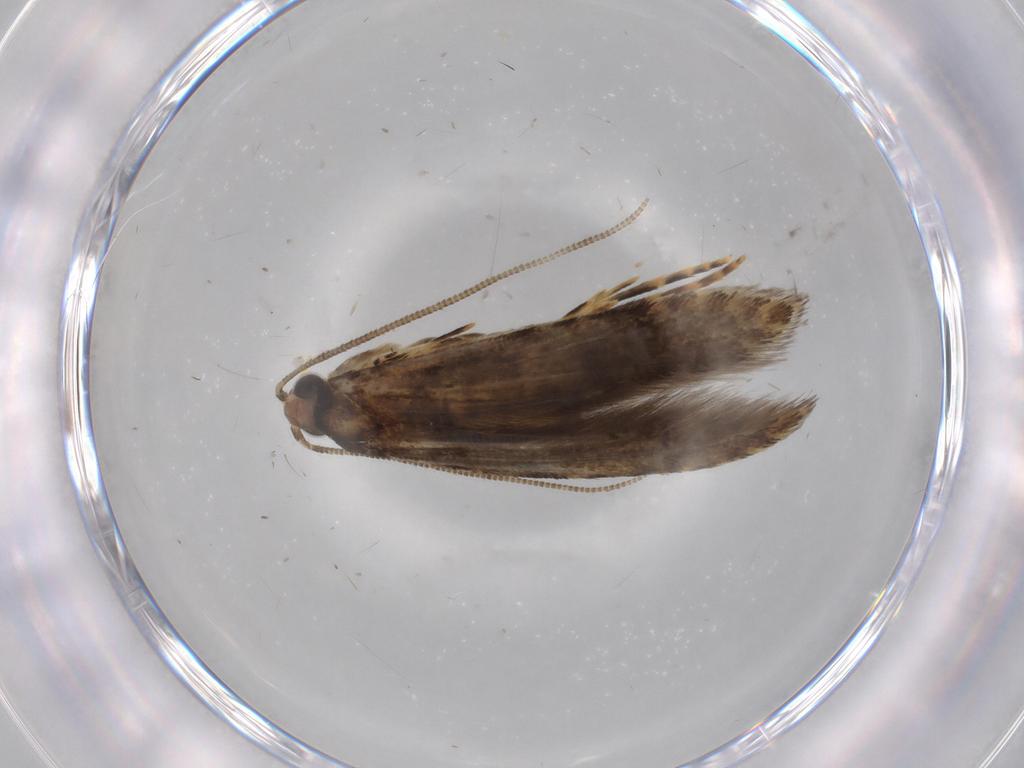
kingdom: Animalia
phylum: Arthropoda
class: Insecta
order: Lepidoptera
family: Tineidae
